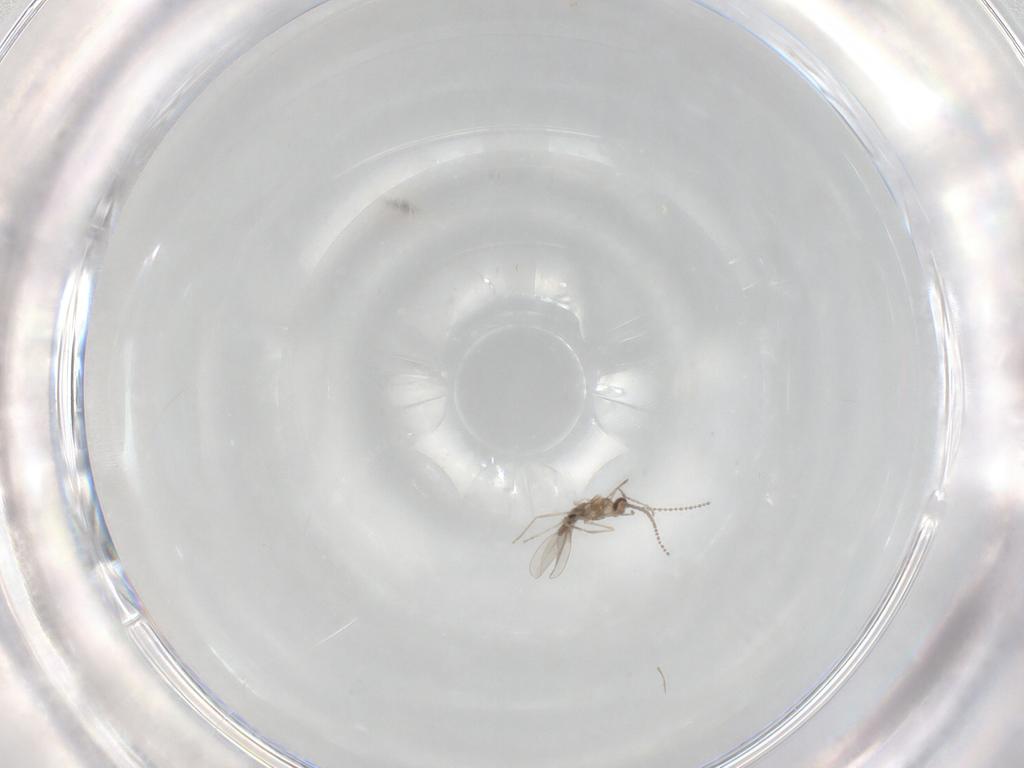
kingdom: Animalia
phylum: Arthropoda
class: Insecta
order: Diptera
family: Cecidomyiidae
